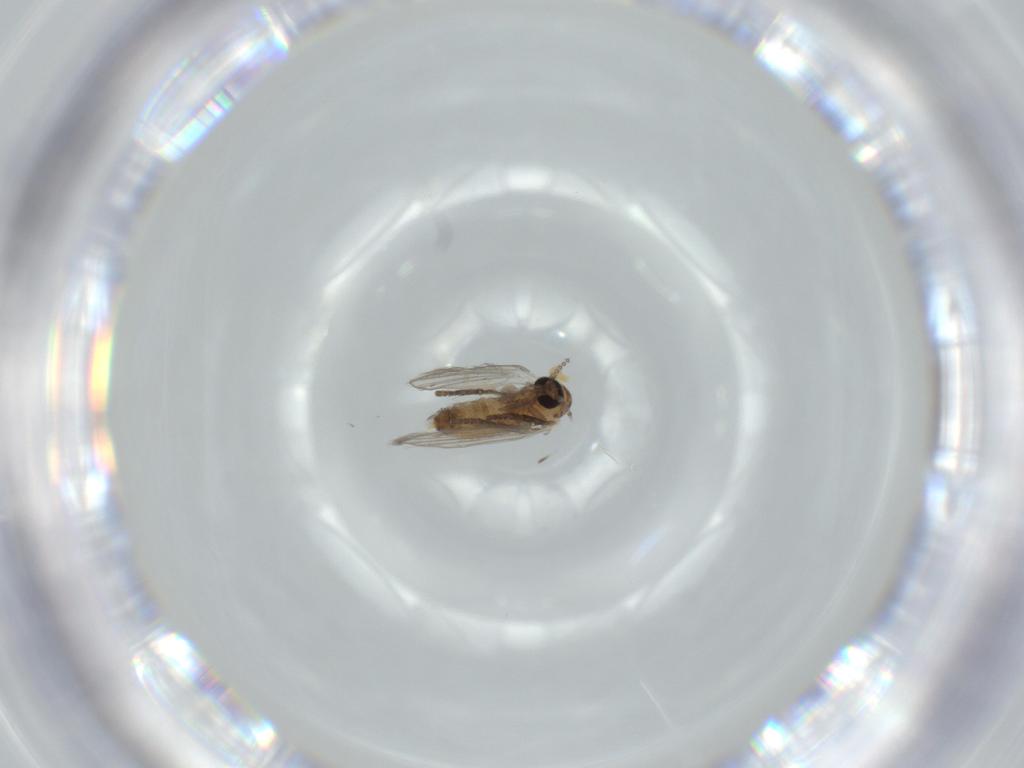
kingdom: Animalia
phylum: Arthropoda
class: Insecta
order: Diptera
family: Psychodidae
